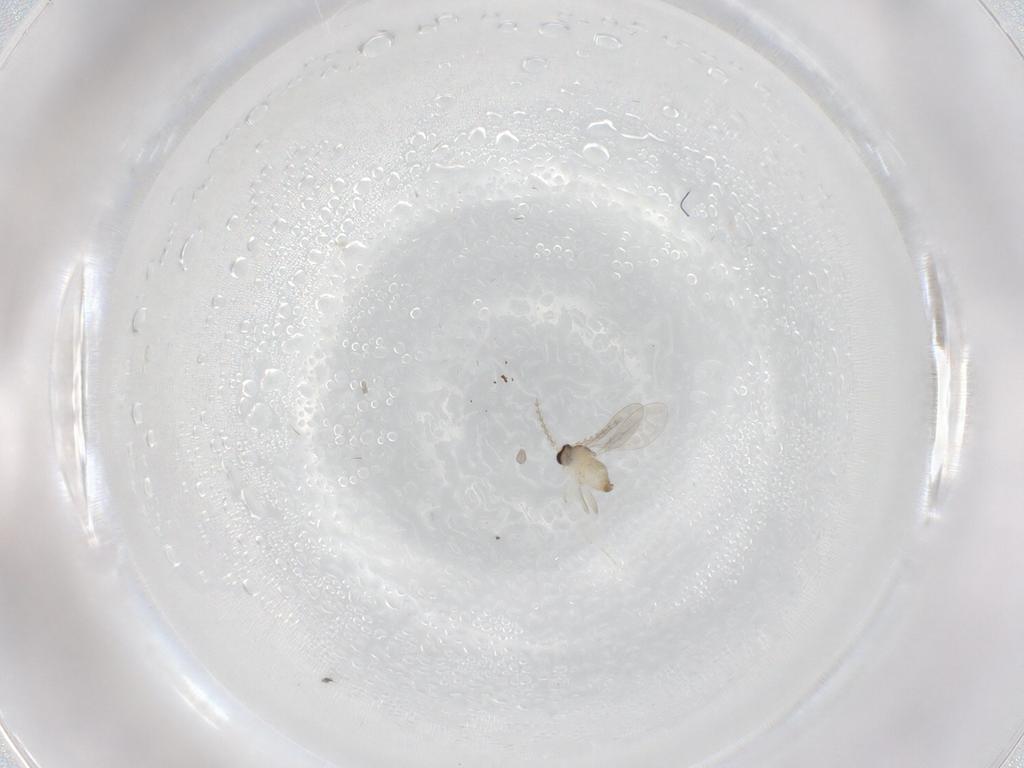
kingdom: Animalia
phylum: Arthropoda
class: Insecta
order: Diptera
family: Cecidomyiidae
